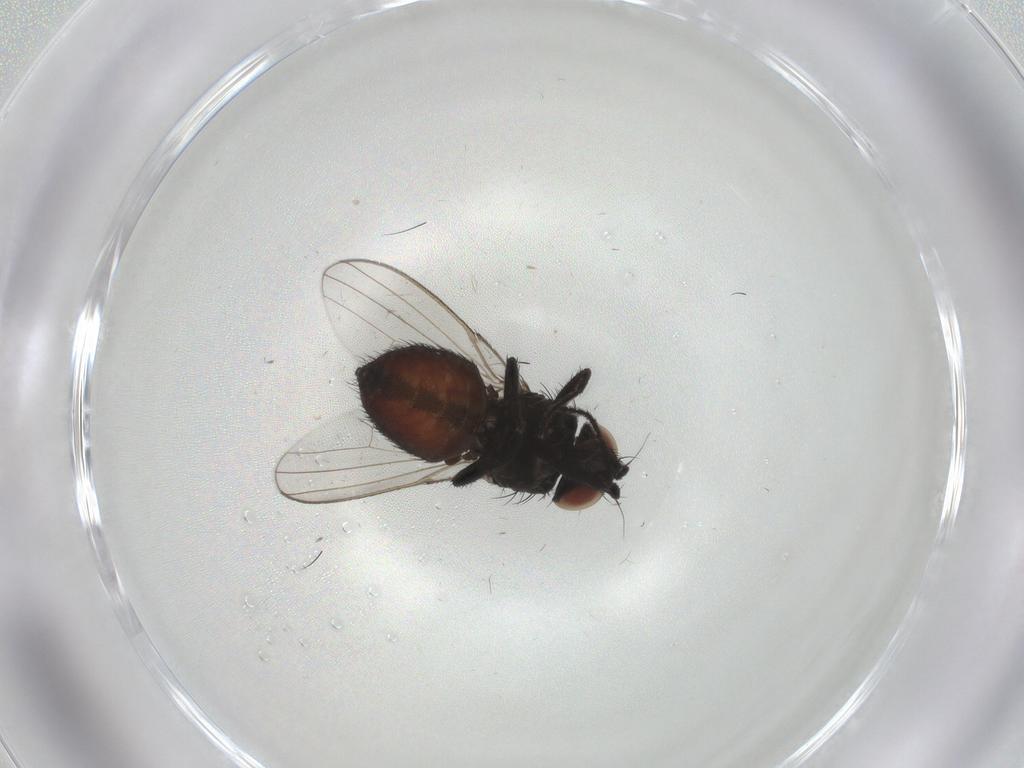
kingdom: Animalia
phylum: Arthropoda
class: Insecta
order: Diptera
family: Milichiidae
